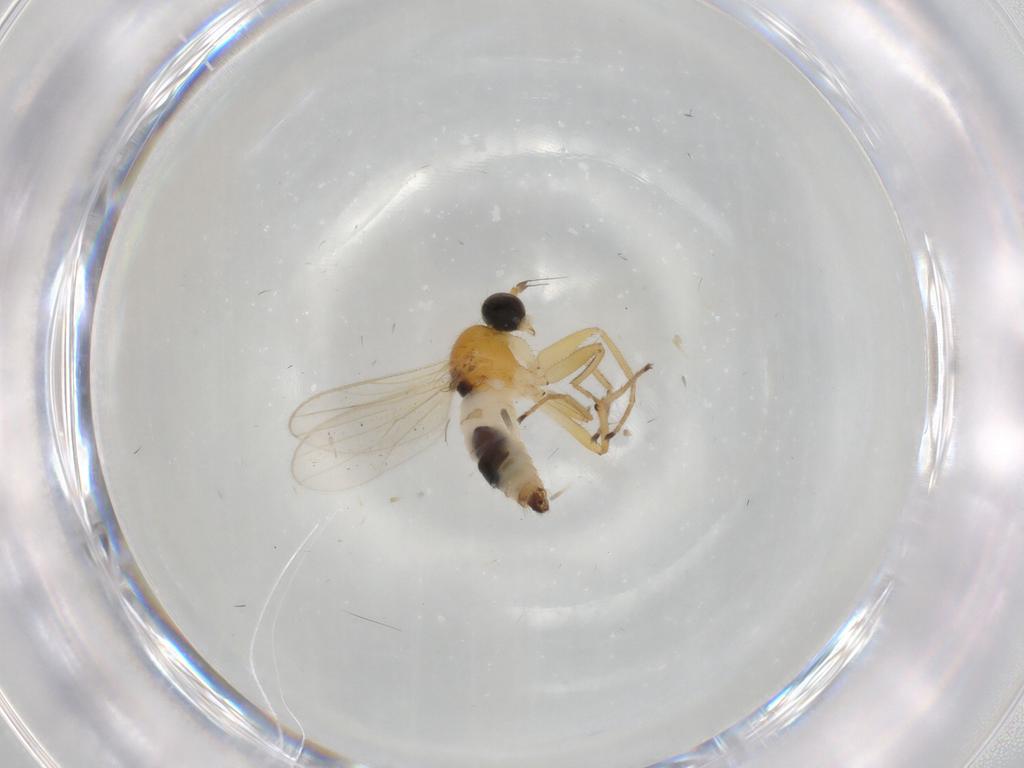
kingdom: Animalia
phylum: Arthropoda
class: Insecta
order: Diptera
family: Hybotidae
